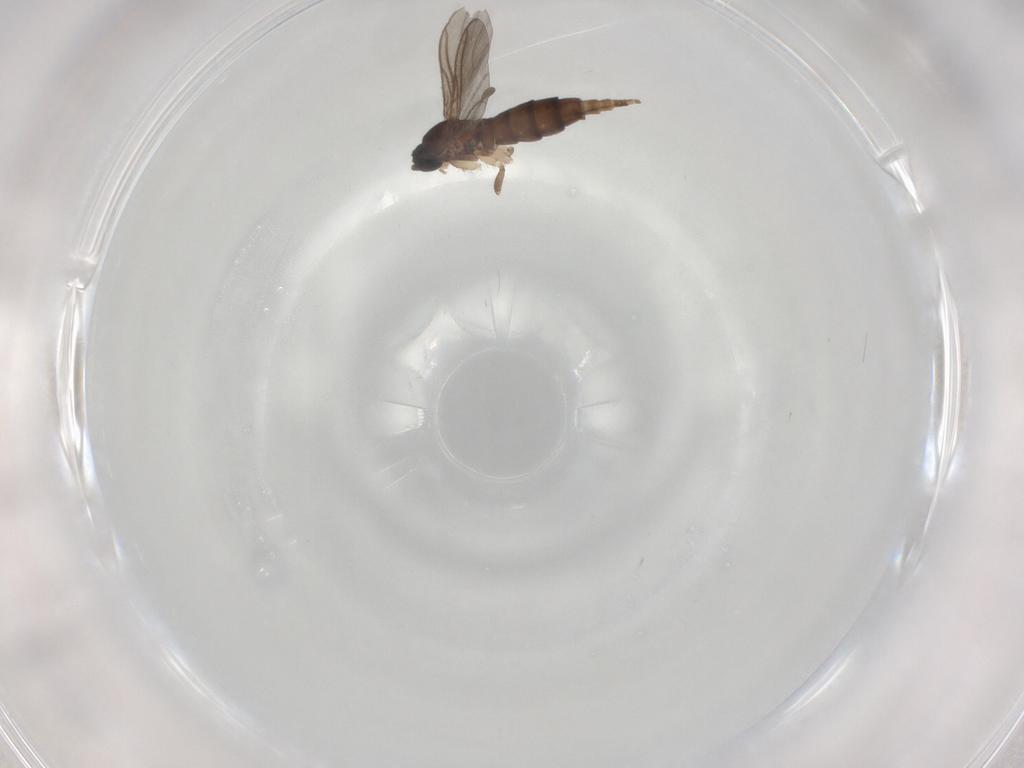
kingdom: Animalia
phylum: Arthropoda
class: Insecta
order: Diptera
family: Sciaridae
